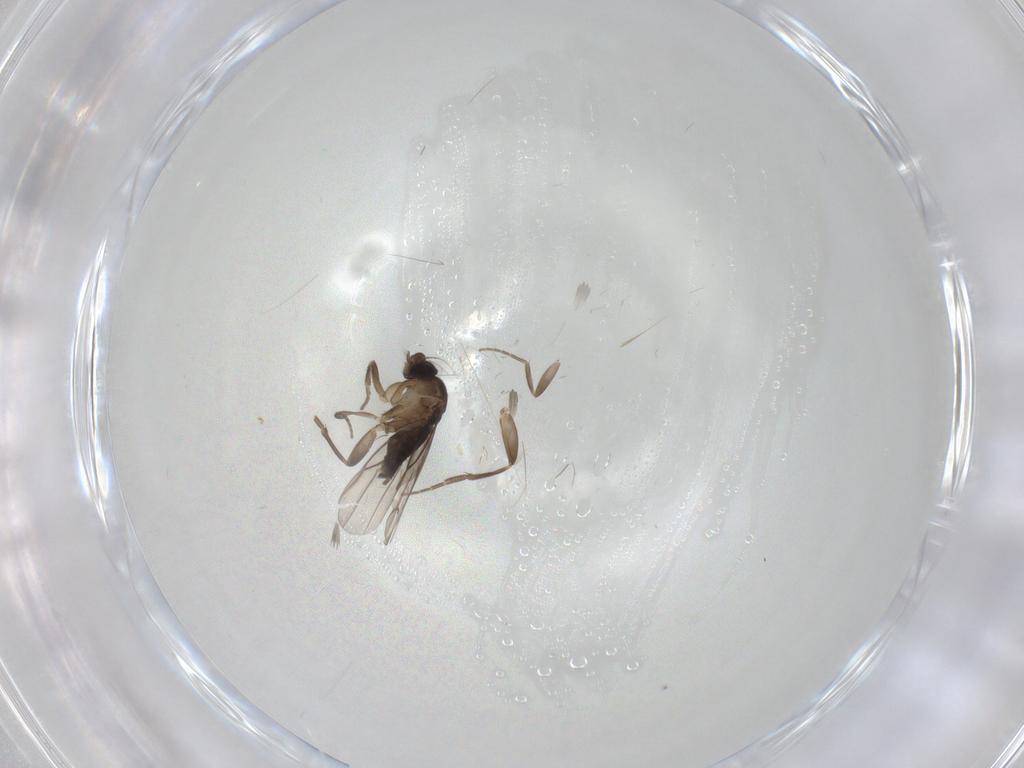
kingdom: Animalia
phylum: Arthropoda
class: Insecta
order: Diptera
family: Phoridae
